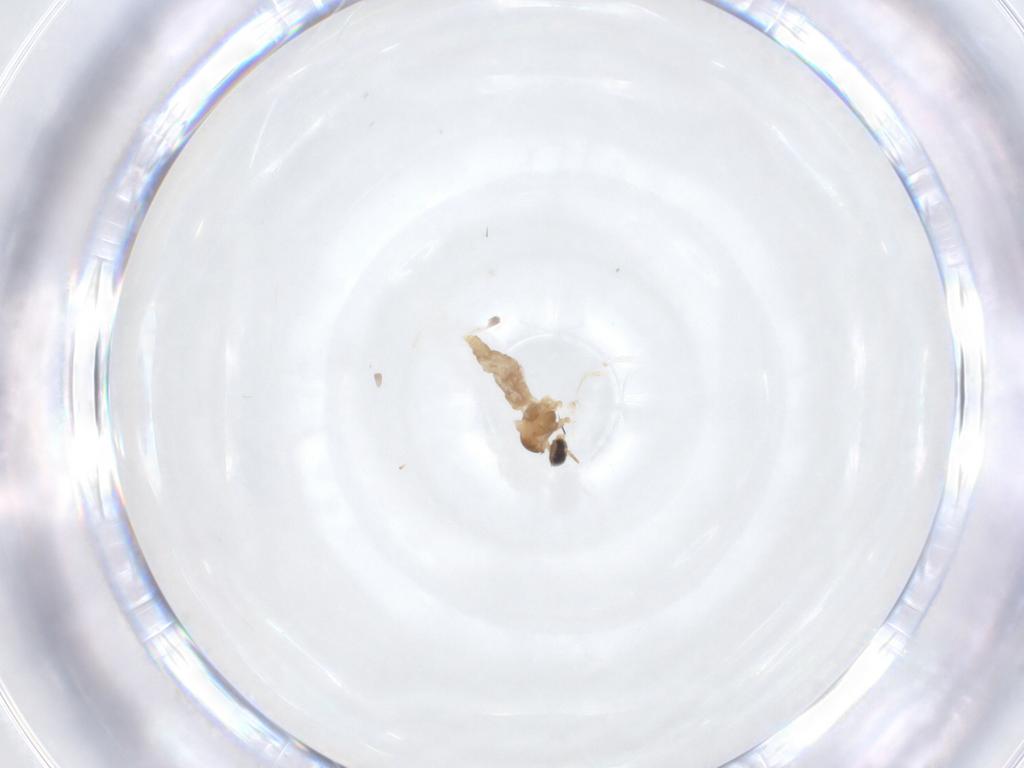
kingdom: Animalia
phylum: Arthropoda
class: Insecta
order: Diptera
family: Cecidomyiidae
